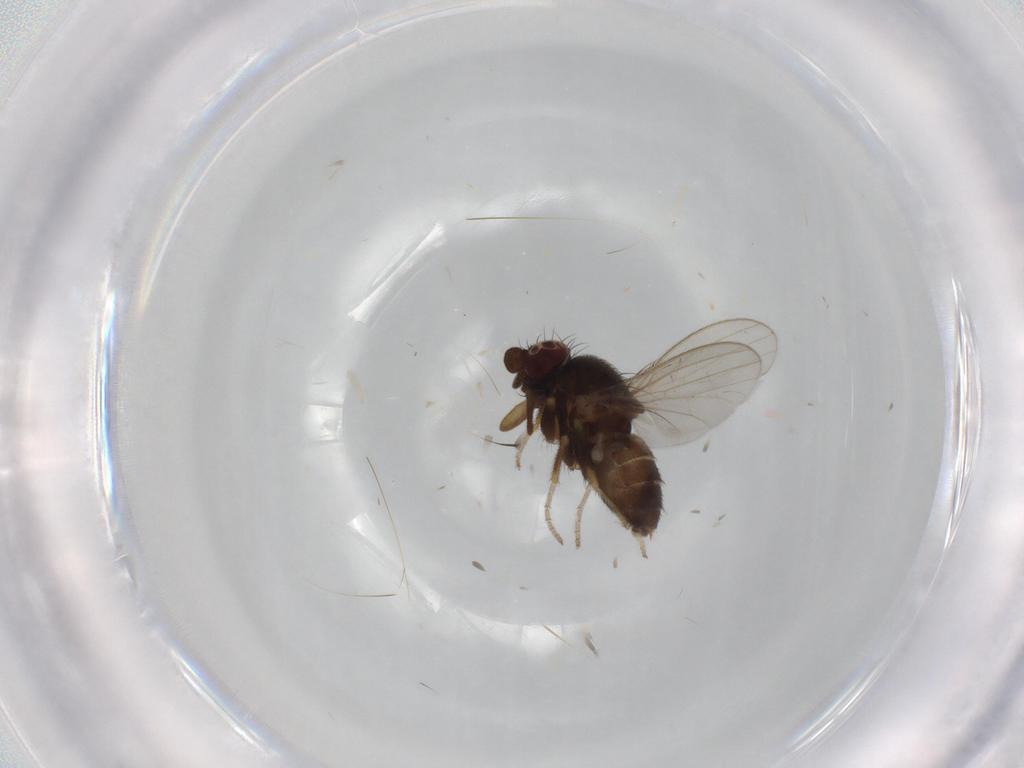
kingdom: Animalia
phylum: Arthropoda
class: Insecta
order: Diptera
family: Milichiidae
